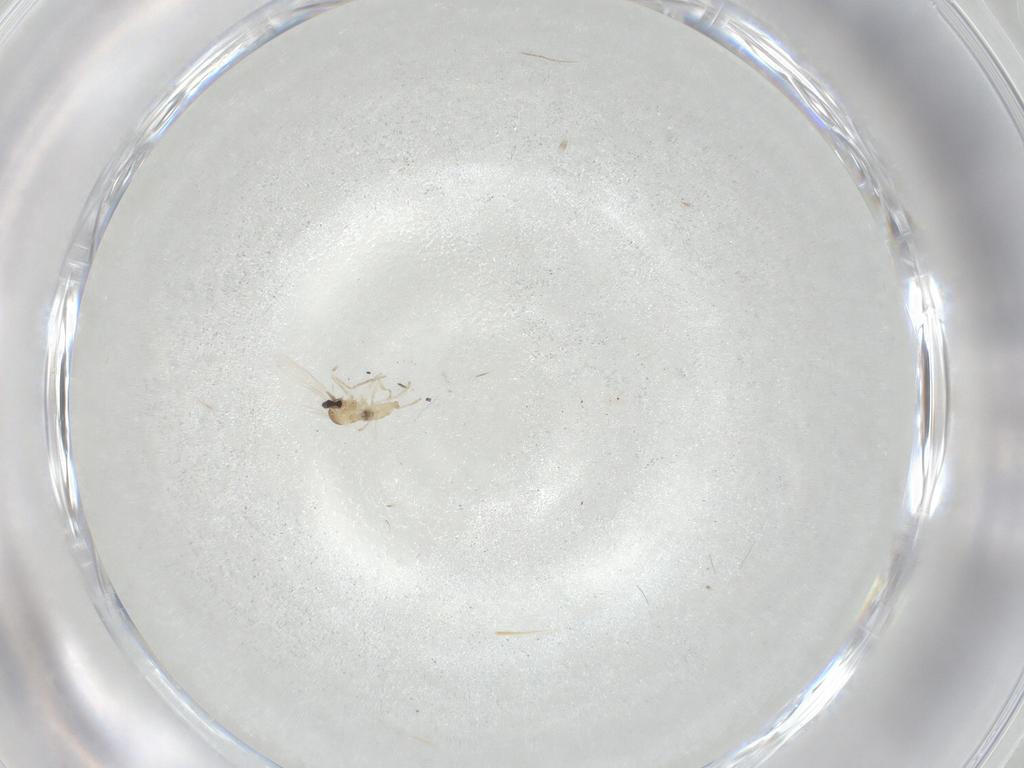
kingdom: Animalia
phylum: Arthropoda
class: Insecta
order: Diptera
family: Cecidomyiidae
